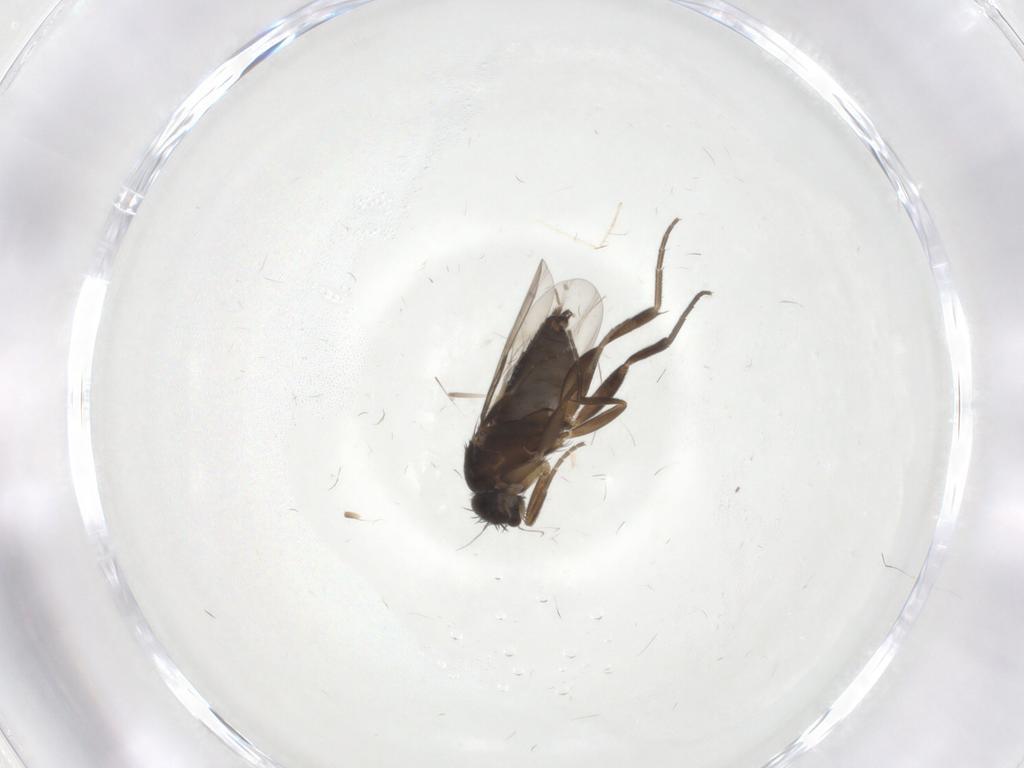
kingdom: Animalia
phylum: Arthropoda
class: Insecta
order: Diptera
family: Phoridae
